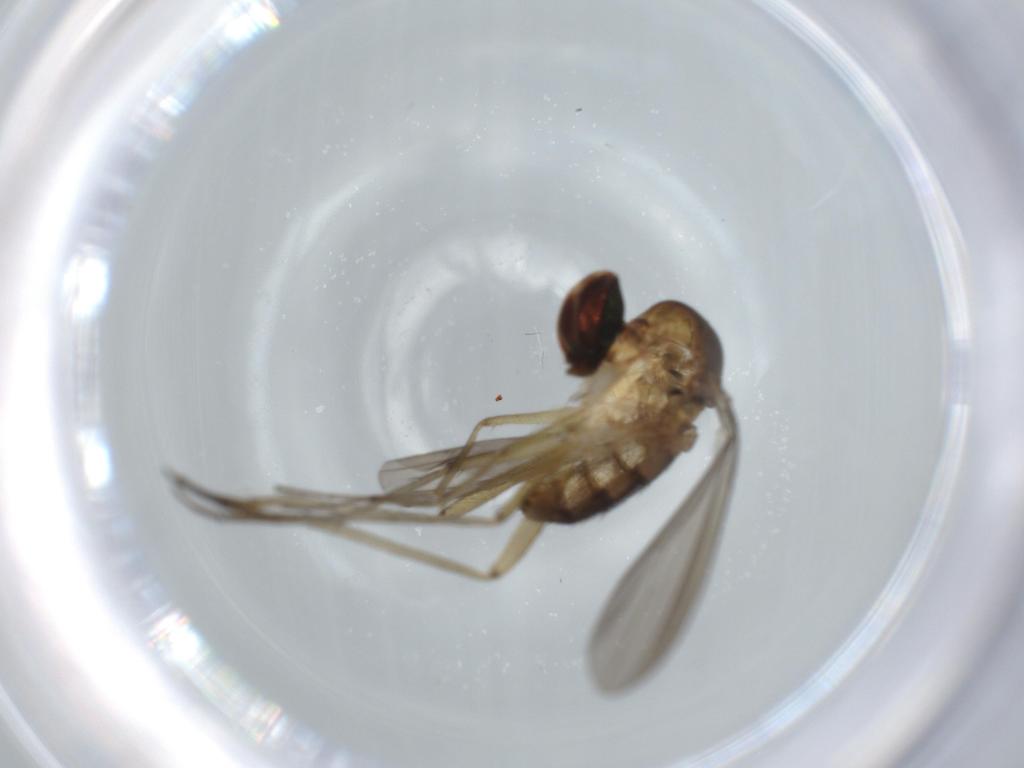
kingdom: Animalia
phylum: Arthropoda
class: Insecta
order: Diptera
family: Dolichopodidae
